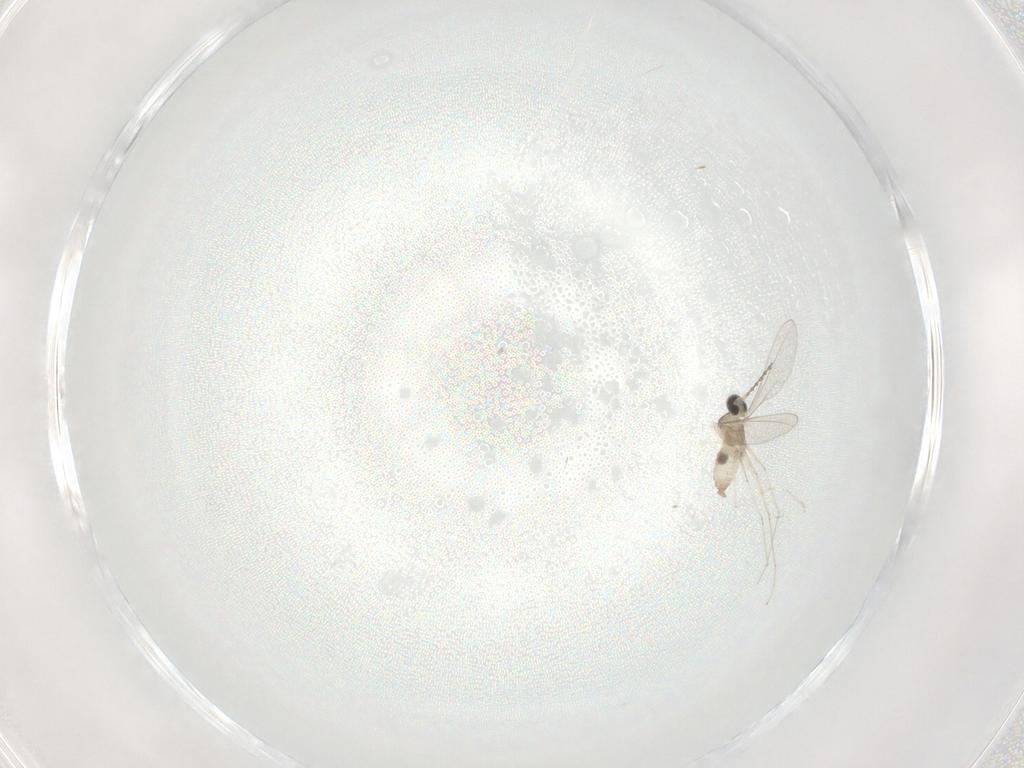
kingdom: Animalia
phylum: Arthropoda
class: Insecta
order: Diptera
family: Cecidomyiidae
